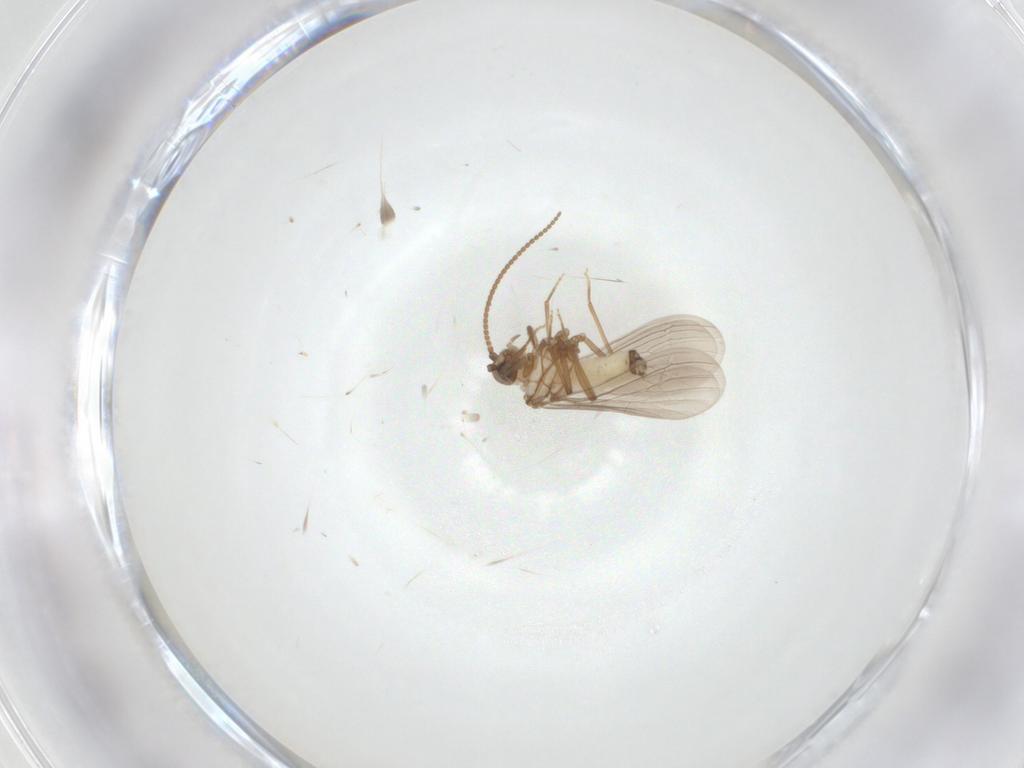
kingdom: Animalia
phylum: Arthropoda
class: Insecta
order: Neuroptera
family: Coniopterygidae
